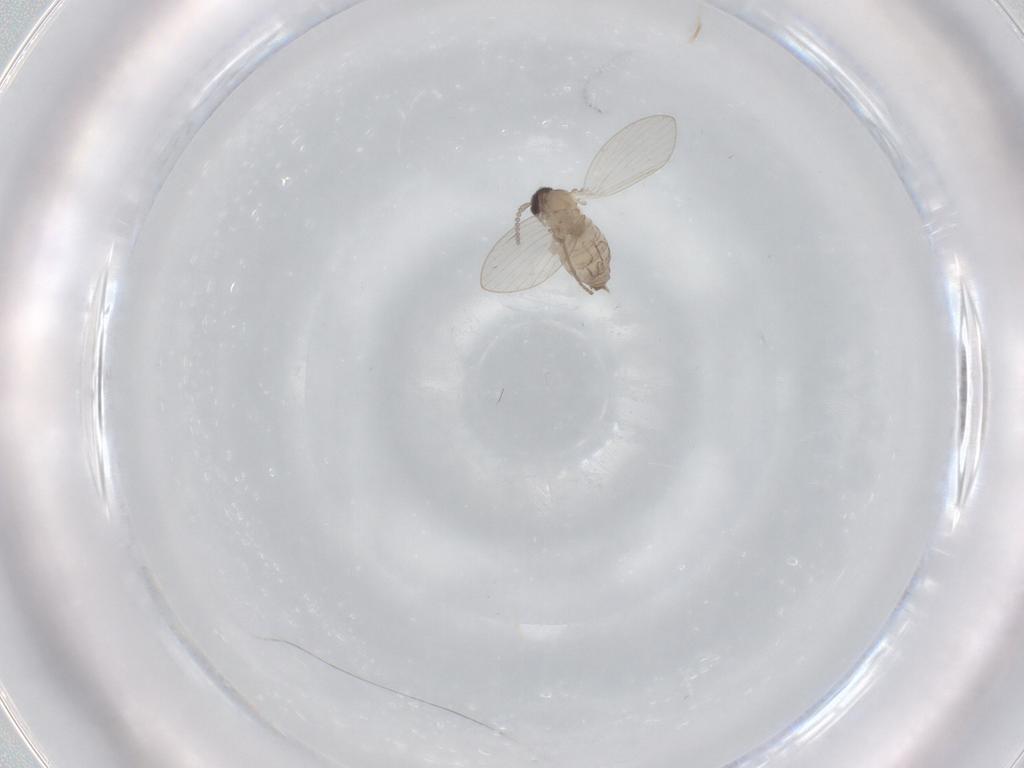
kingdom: Animalia
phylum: Arthropoda
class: Insecta
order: Diptera
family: Psychodidae
